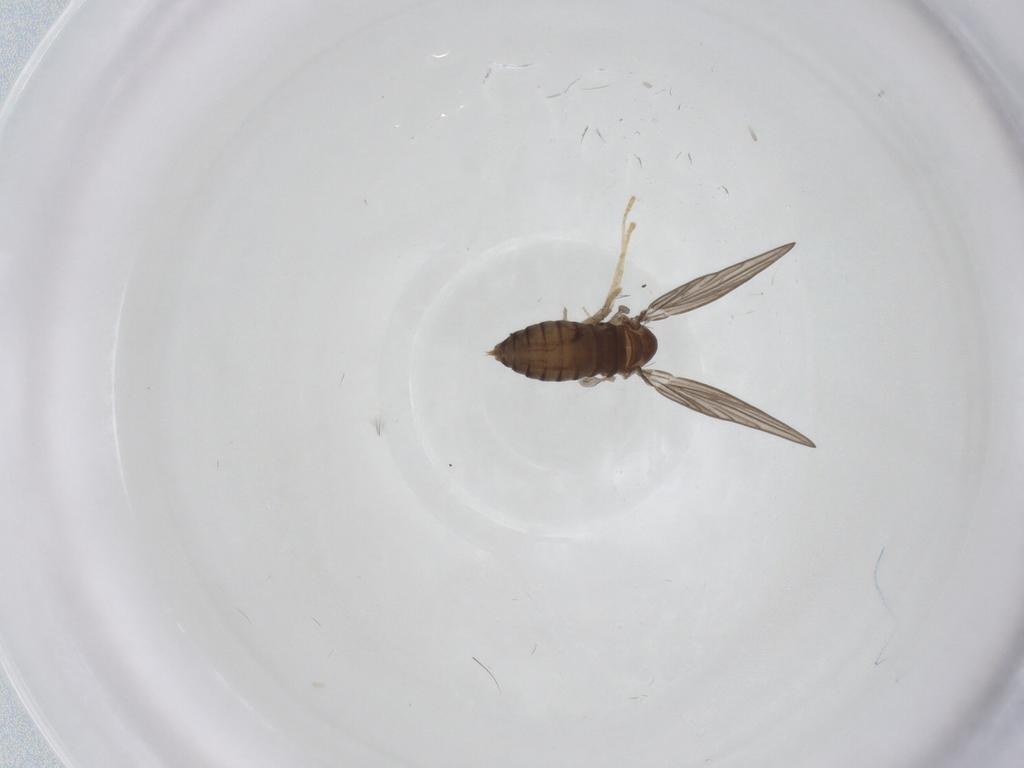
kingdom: Animalia
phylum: Arthropoda
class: Insecta
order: Diptera
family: Psychodidae
